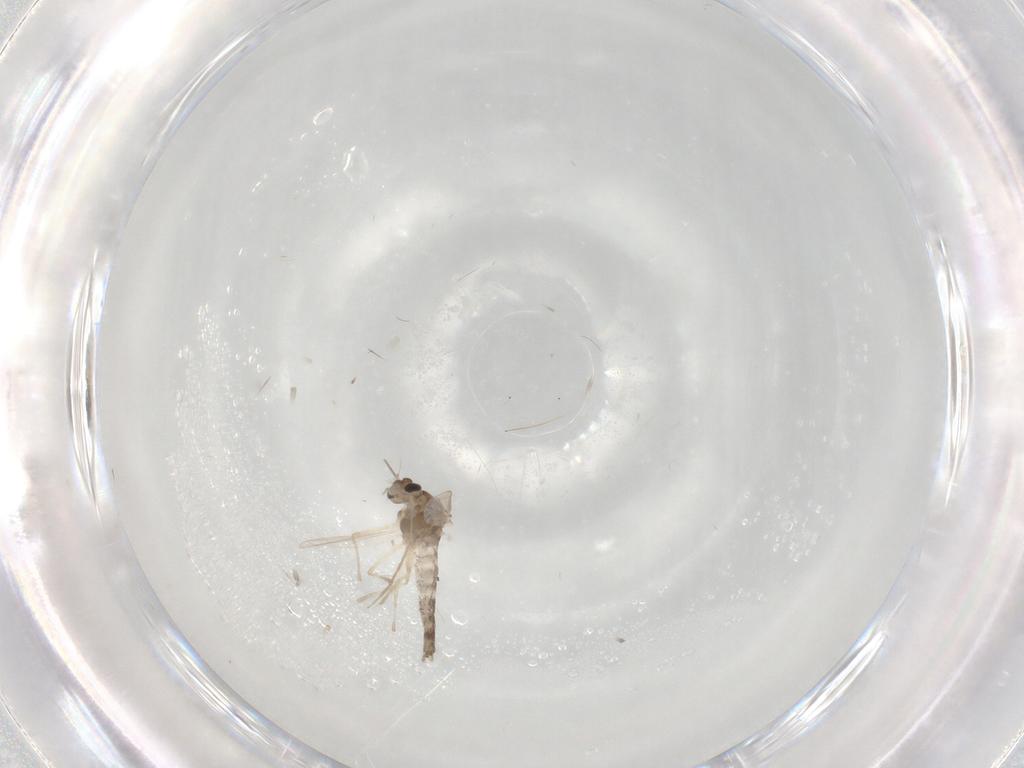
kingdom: Animalia
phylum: Arthropoda
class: Insecta
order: Diptera
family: Chironomidae
